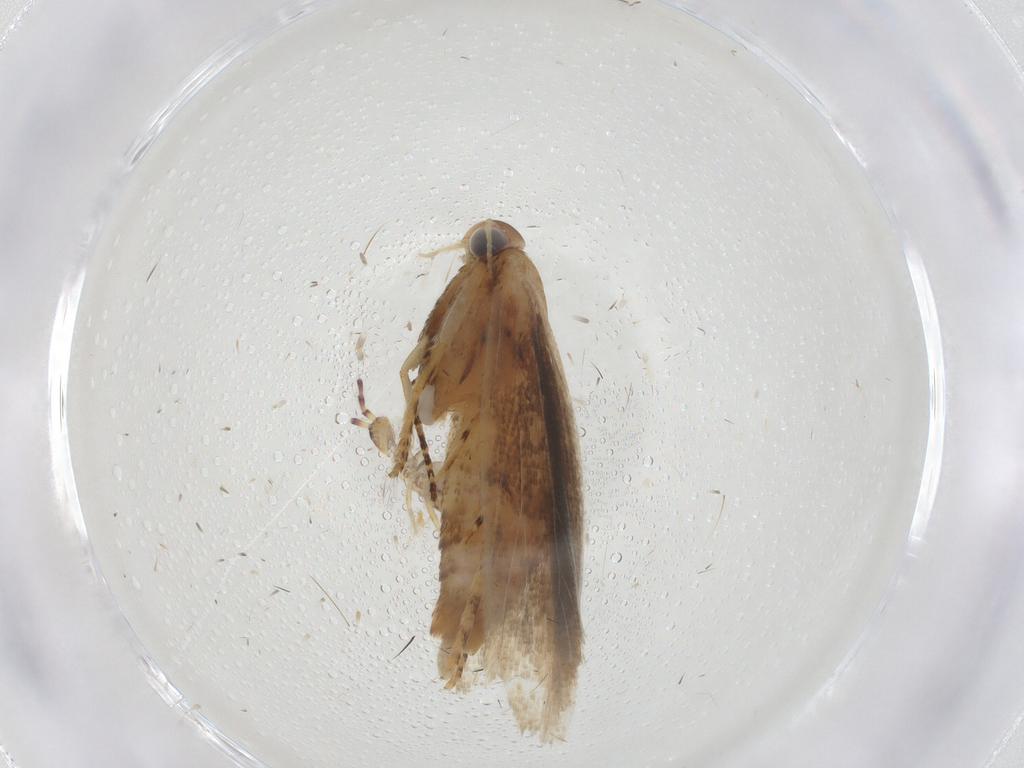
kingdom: Animalia
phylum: Arthropoda
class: Insecta
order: Lepidoptera
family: Gelechiidae
